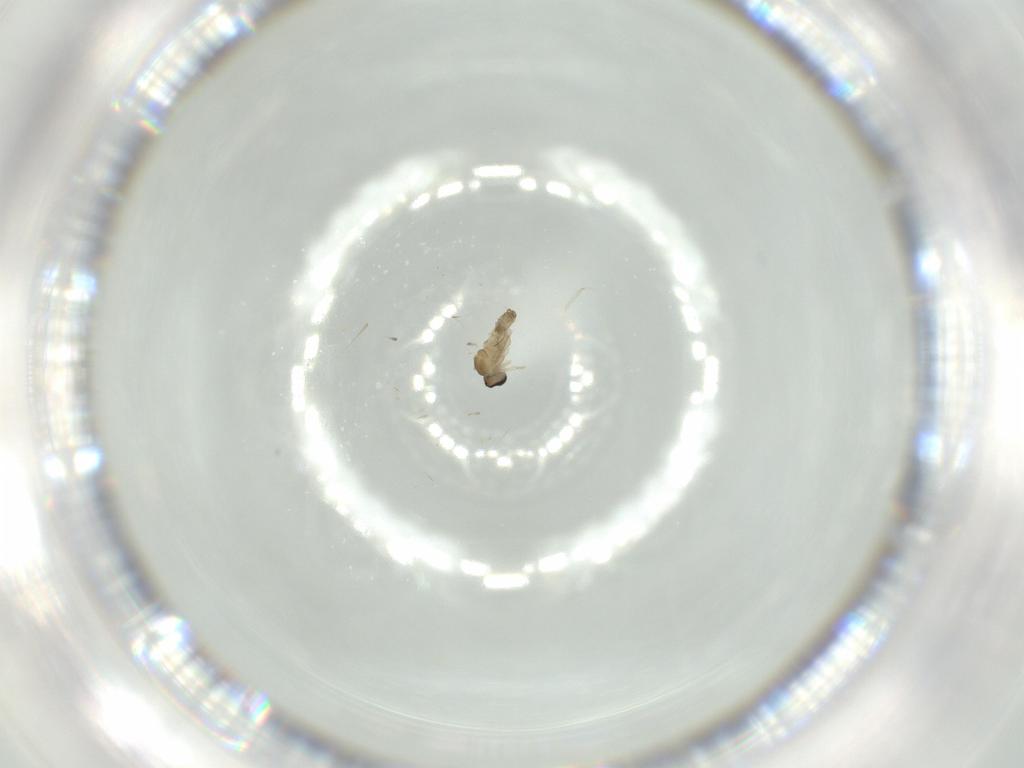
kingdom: Animalia
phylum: Arthropoda
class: Insecta
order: Diptera
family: Cecidomyiidae
